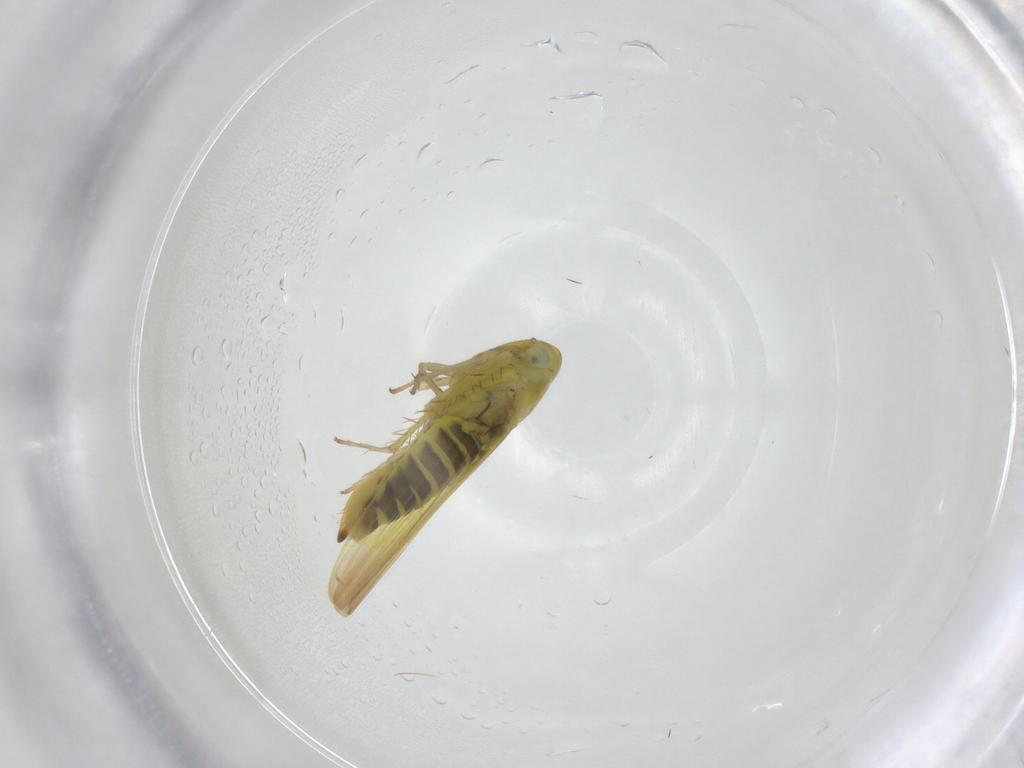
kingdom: Animalia
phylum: Arthropoda
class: Insecta
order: Hemiptera
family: Cicadellidae
